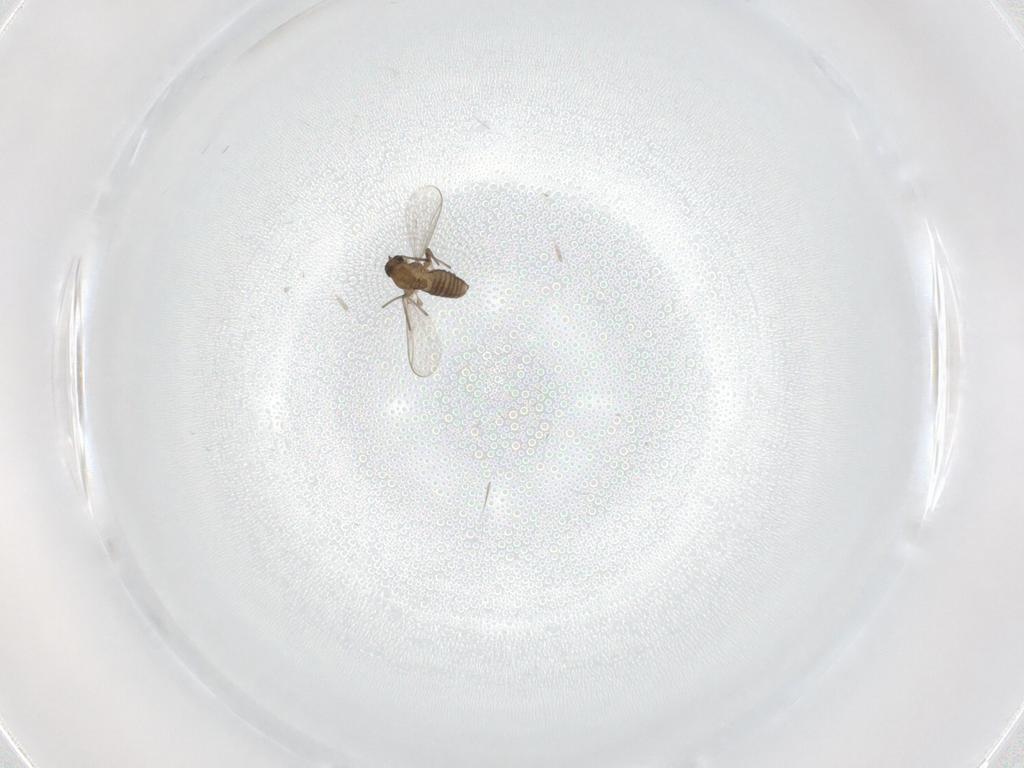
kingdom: Animalia
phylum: Arthropoda
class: Insecta
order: Diptera
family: Chironomidae
